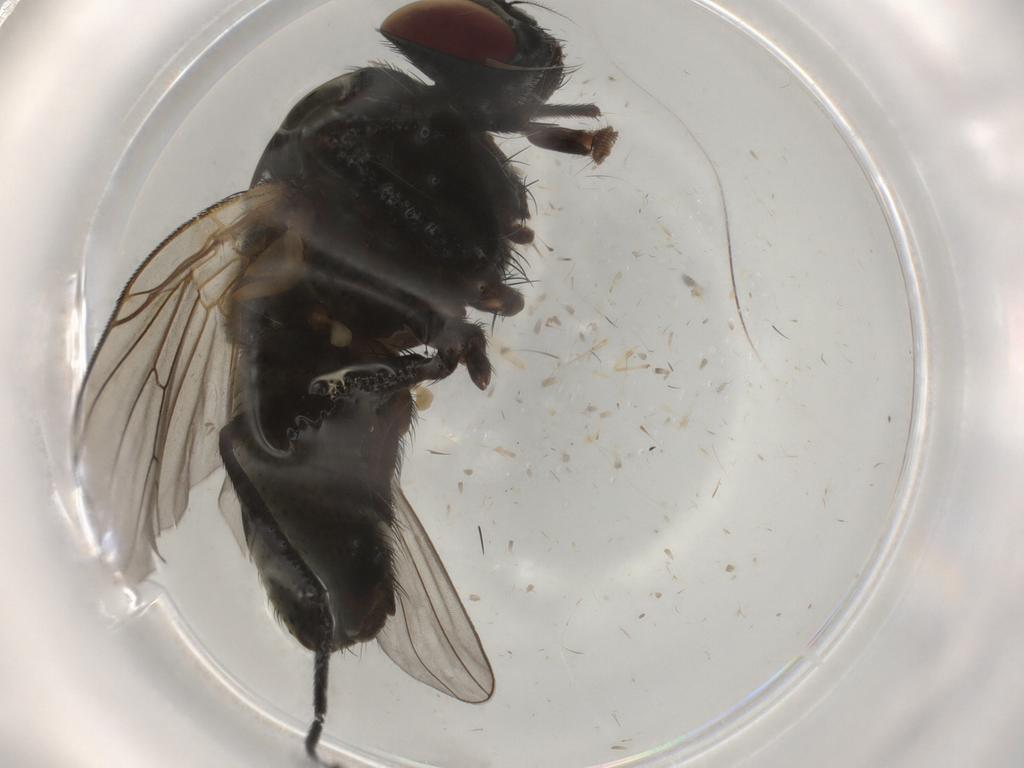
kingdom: Animalia
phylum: Arthropoda
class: Insecta
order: Diptera
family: Muscidae
